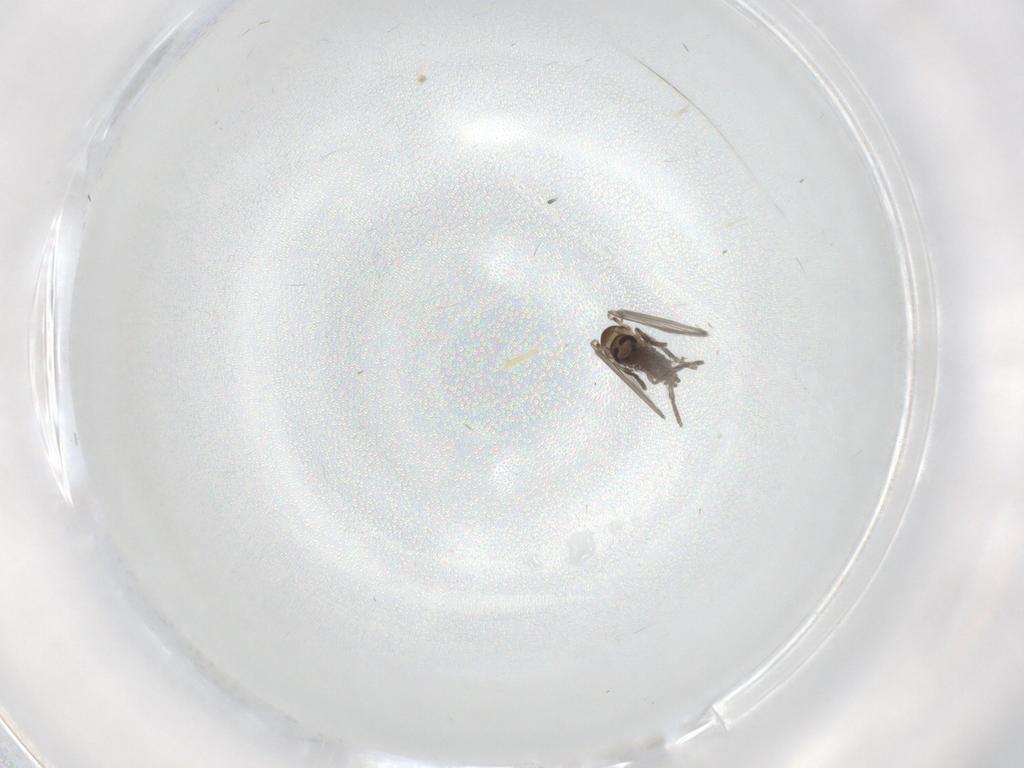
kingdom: Animalia
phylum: Arthropoda
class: Insecta
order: Diptera
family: Psychodidae
